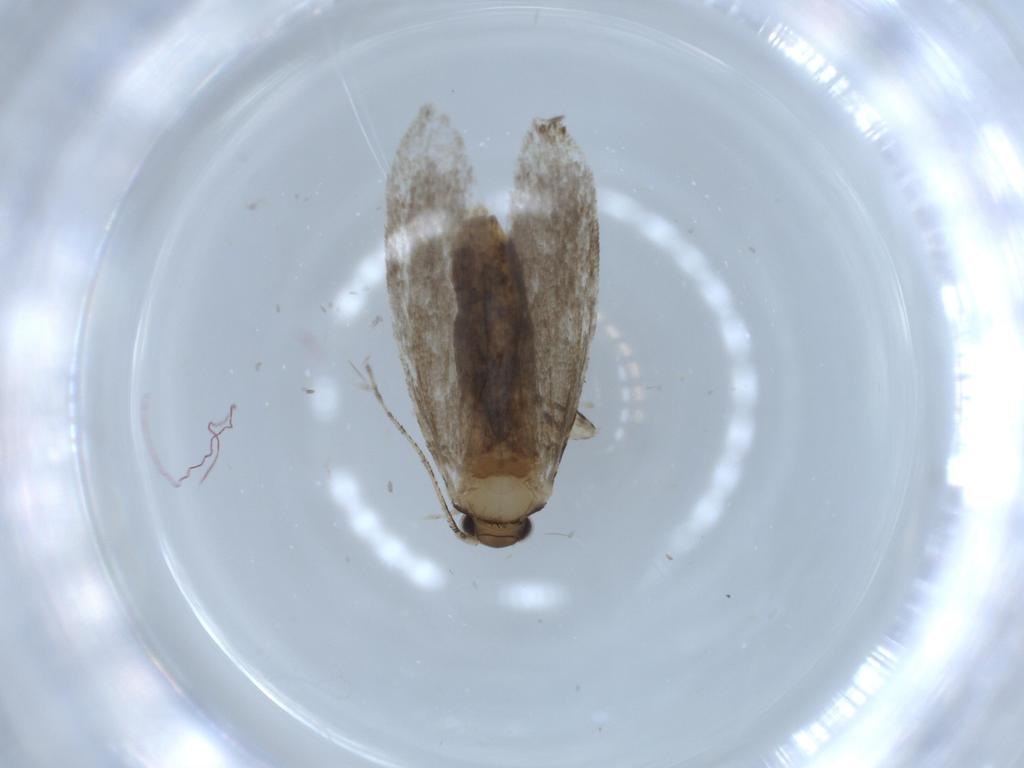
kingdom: Animalia
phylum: Arthropoda
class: Insecta
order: Lepidoptera
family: Tineidae
